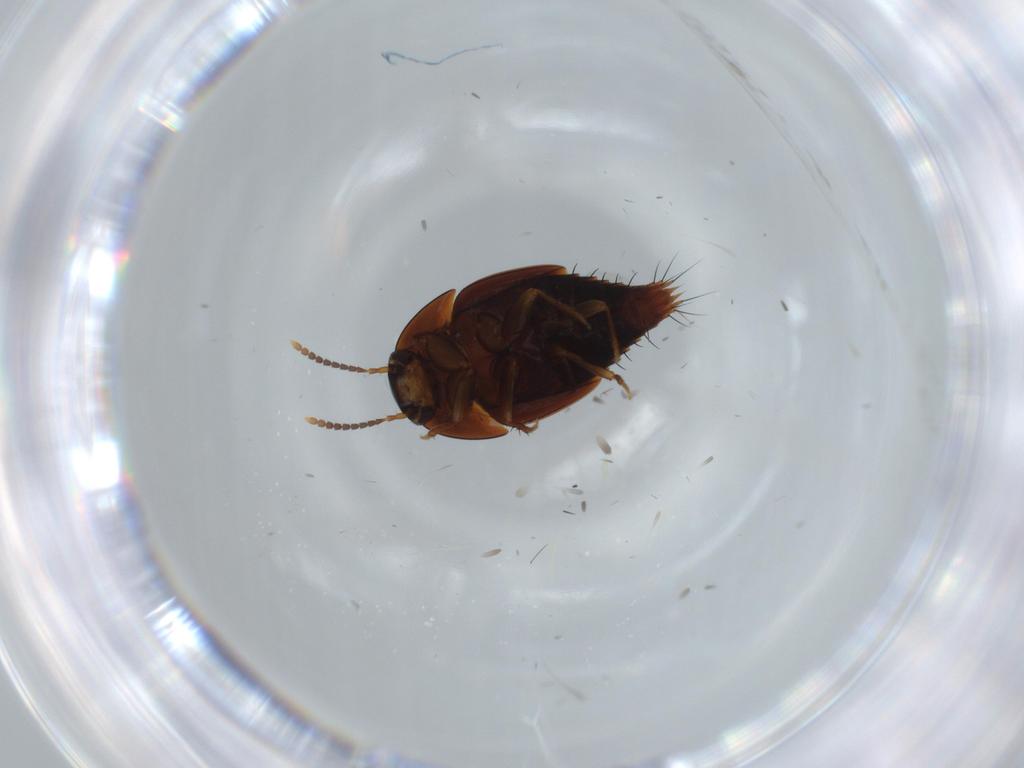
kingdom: Animalia
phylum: Arthropoda
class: Insecta
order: Coleoptera
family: Staphylinidae
